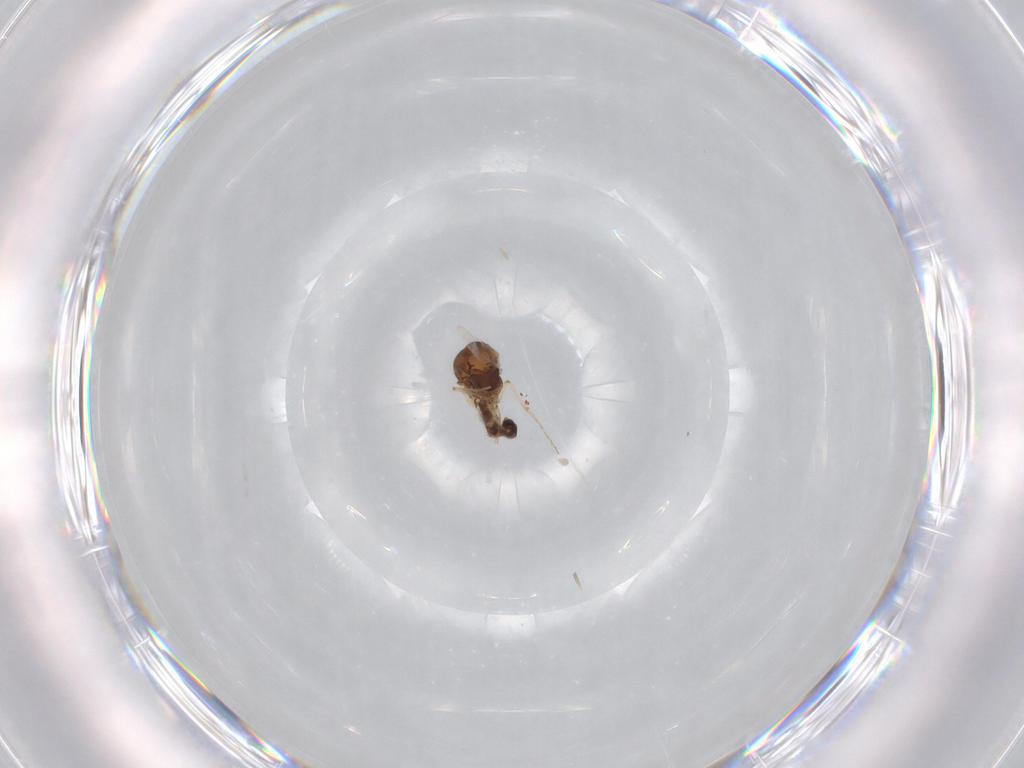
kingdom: Animalia
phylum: Arthropoda
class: Insecta
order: Diptera
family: Ceratopogonidae
